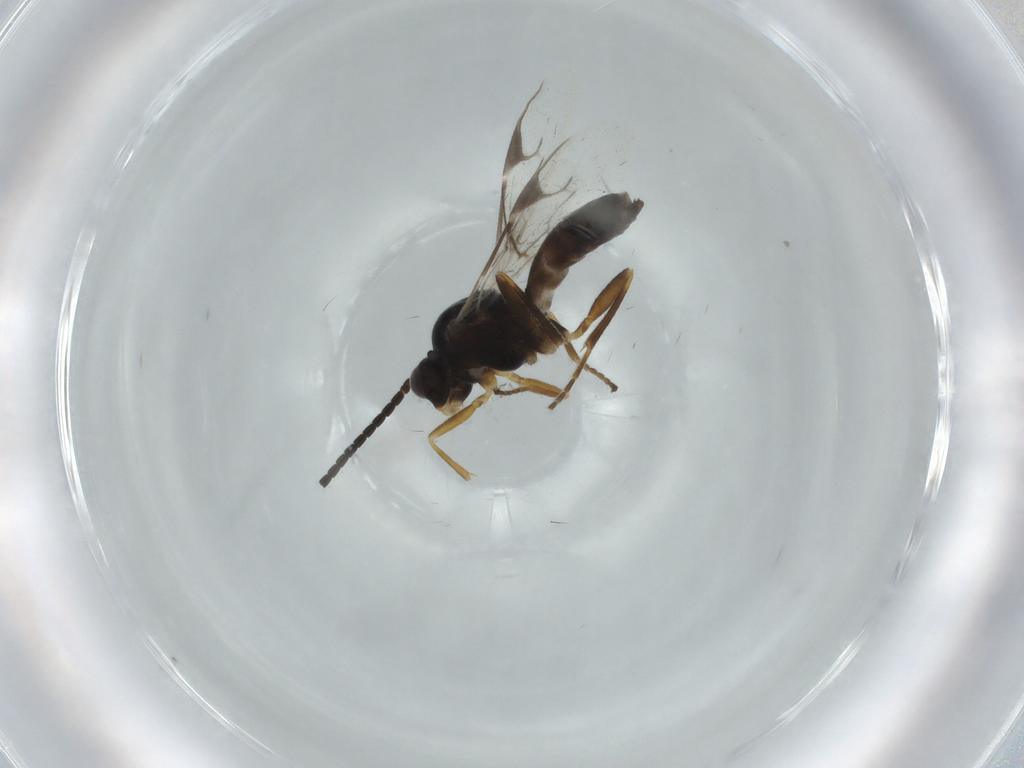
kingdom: Animalia
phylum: Arthropoda
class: Insecta
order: Hymenoptera
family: Braconidae
